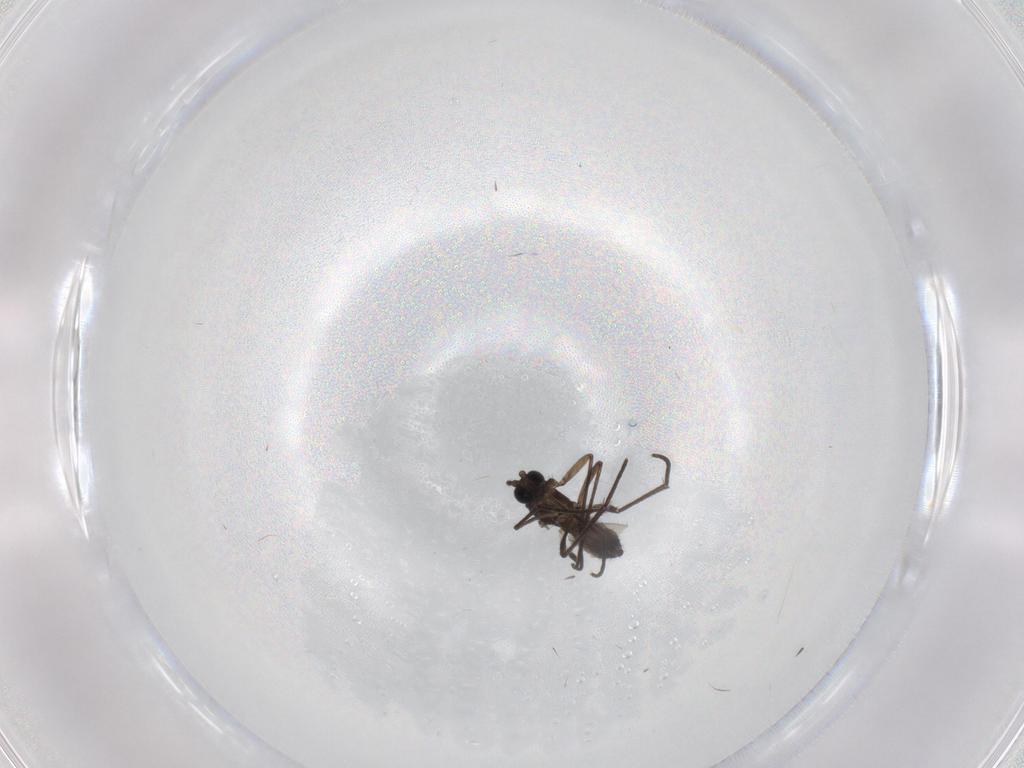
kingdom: Animalia
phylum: Arthropoda
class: Insecta
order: Diptera
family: Sciaridae
